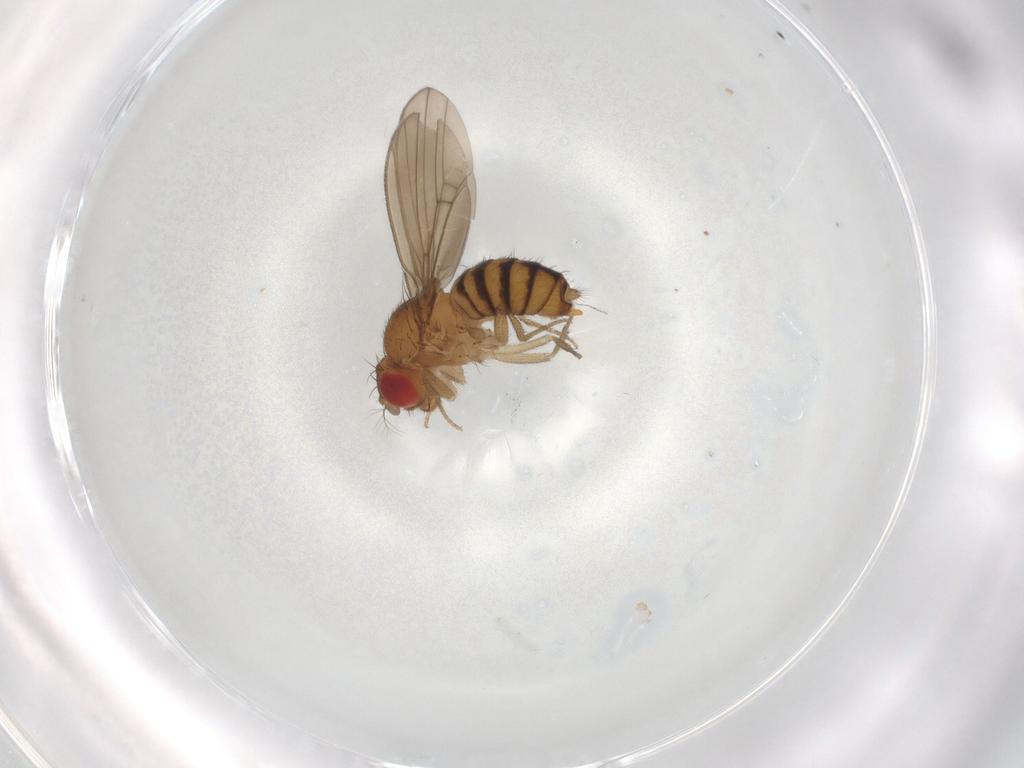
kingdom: Animalia
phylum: Arthropoda
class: Insecta
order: Diptera
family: Drosophilidae
